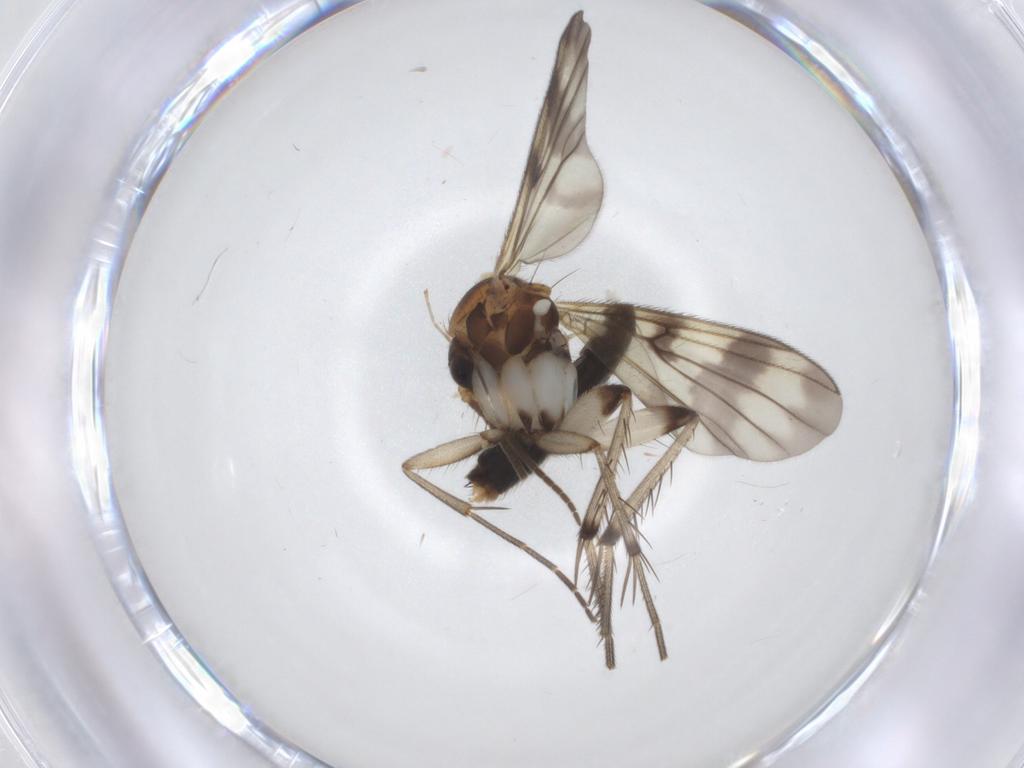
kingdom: Animalia
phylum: Arthropoda
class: Insecta
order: Diptera
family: Mycetophilidae
